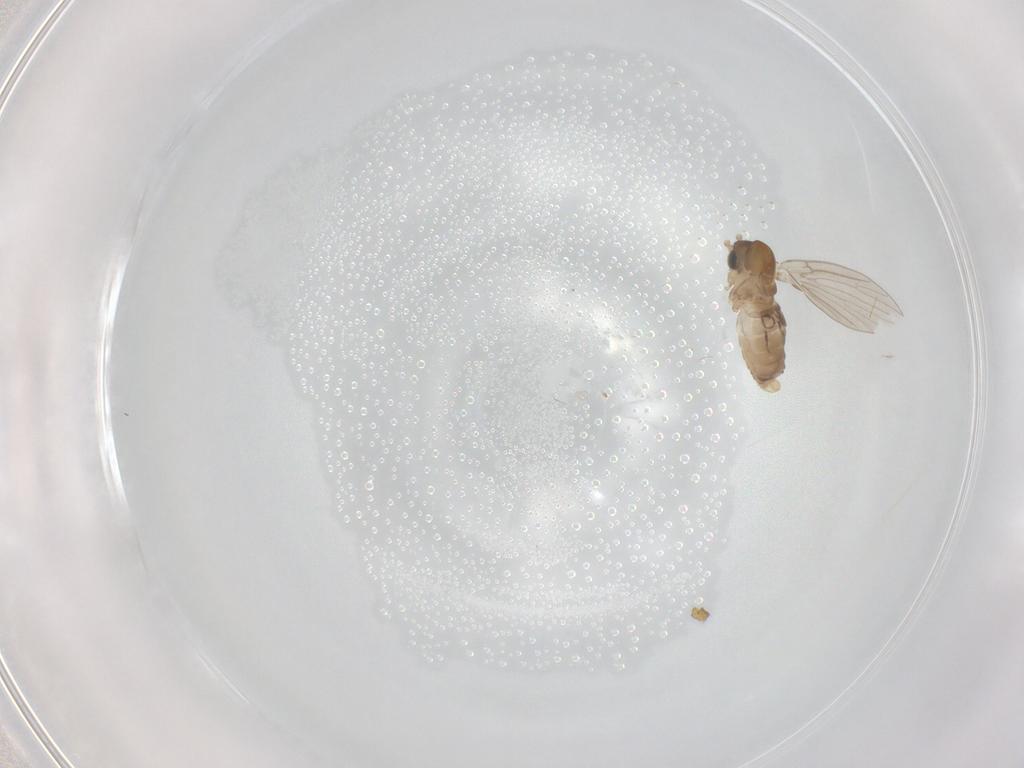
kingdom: Animalia
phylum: Arthropoda
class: Insecta
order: Diptera
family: Psychodidae
